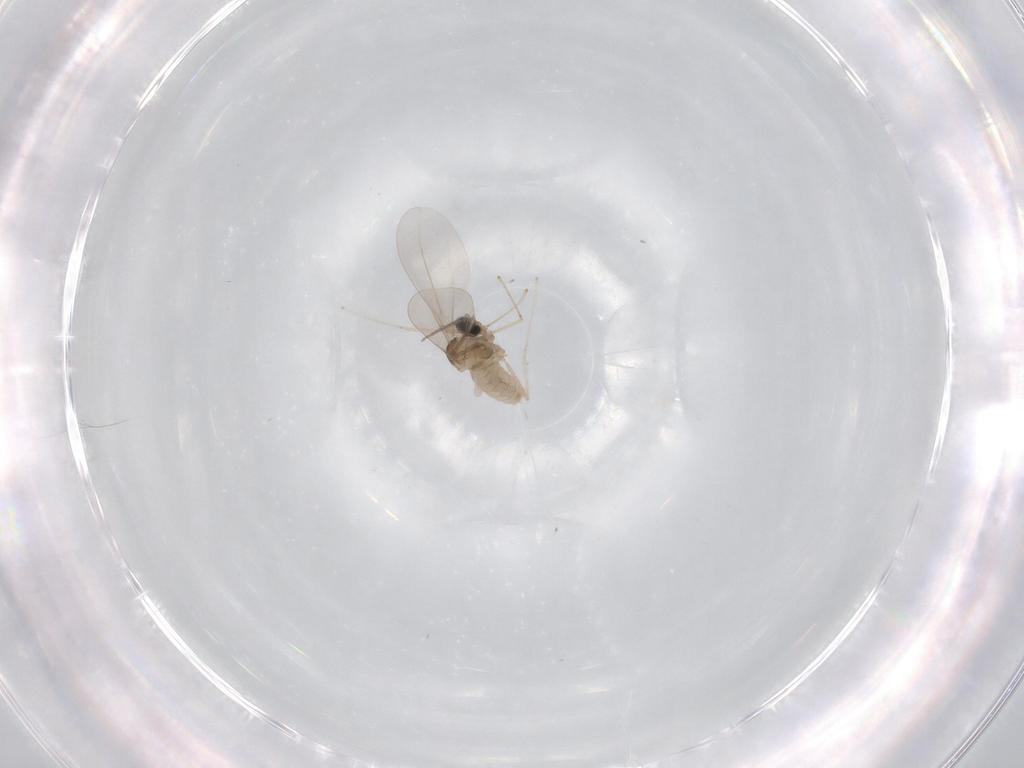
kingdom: Animalia
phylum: Arthropoda
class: Insecta
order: Diptera
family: Cecidomyiidae
